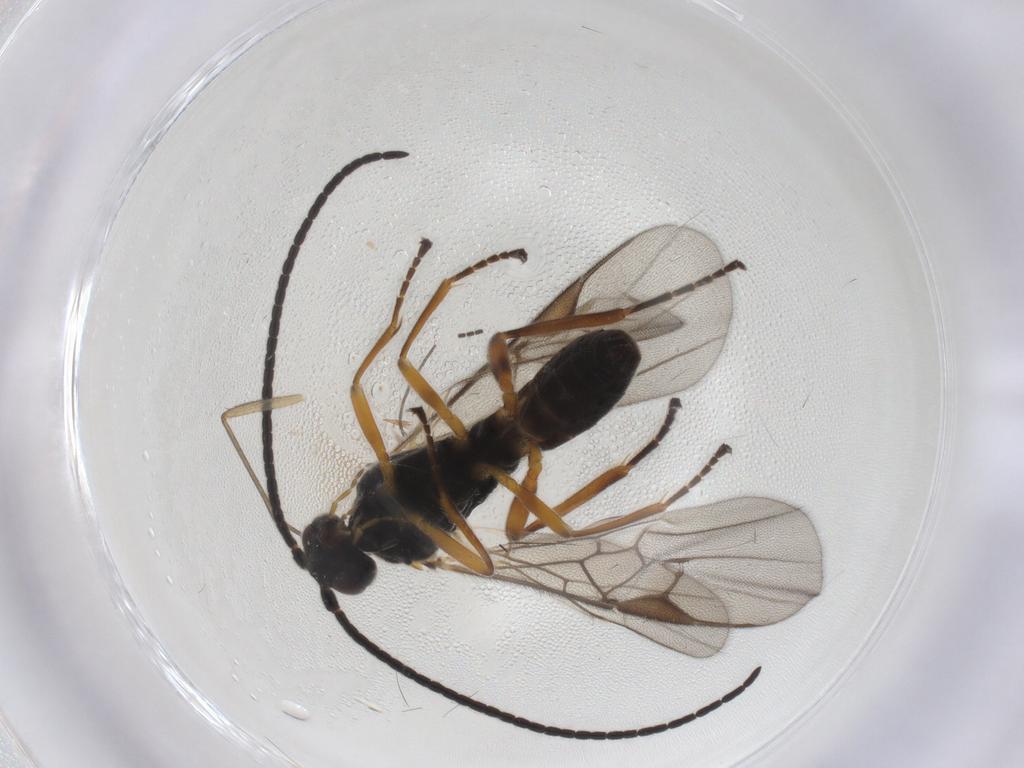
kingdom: Animalia
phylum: Arthropoda
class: Insecta
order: Hymenoptera
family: Braconidae
